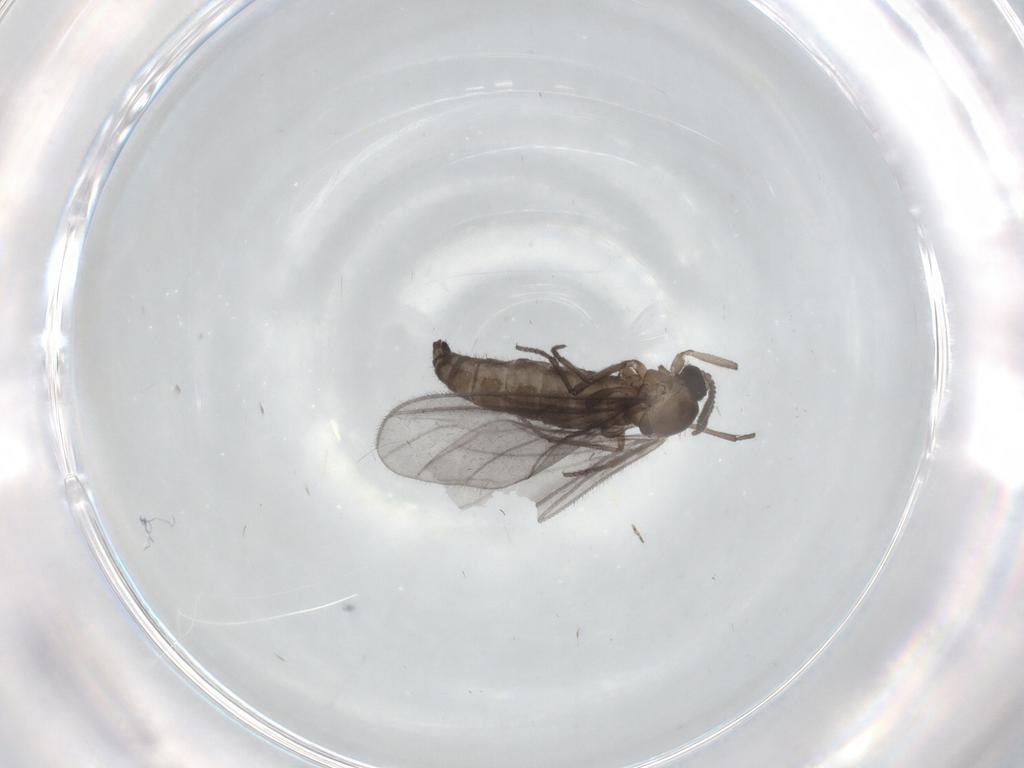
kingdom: Animalia
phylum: Arthropoda
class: Insecta
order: Diptera
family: Sciaridae
